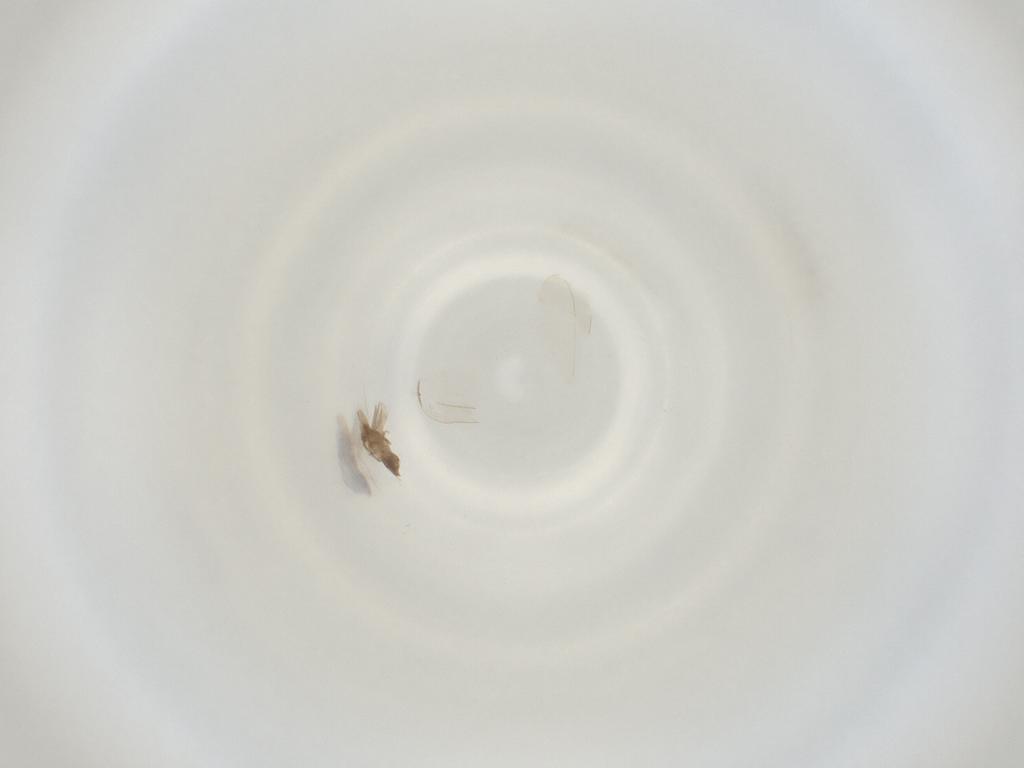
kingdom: Animalia
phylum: Arthropoda
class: Insecta
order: Diptera
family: Cecidomyiidae
